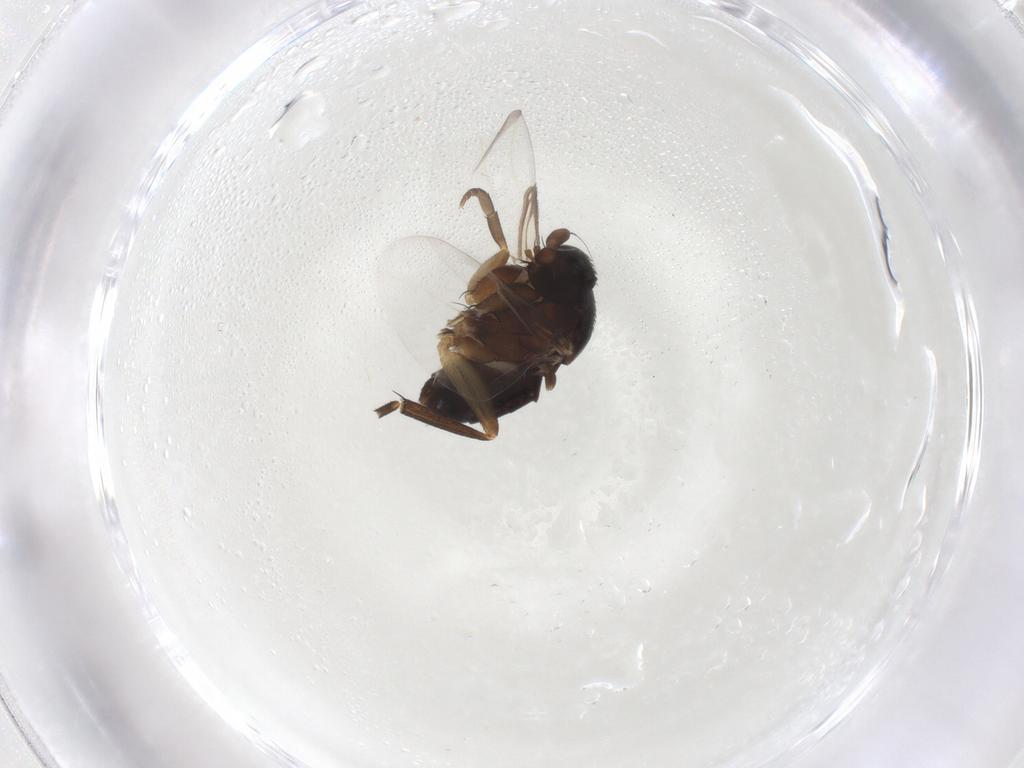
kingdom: Animalia
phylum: Arthropoda
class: Insecta
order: Diptera
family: Phoridae
